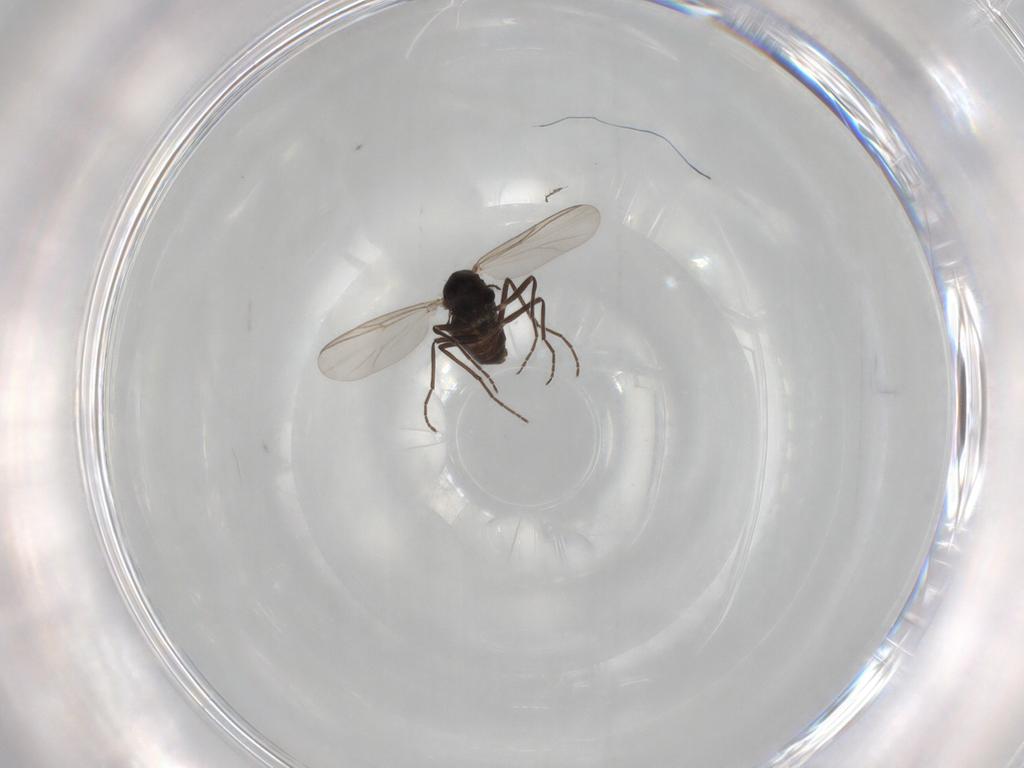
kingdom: Animalia
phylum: Arthropoda
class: Insecta
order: Diptera
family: Chironomidae
